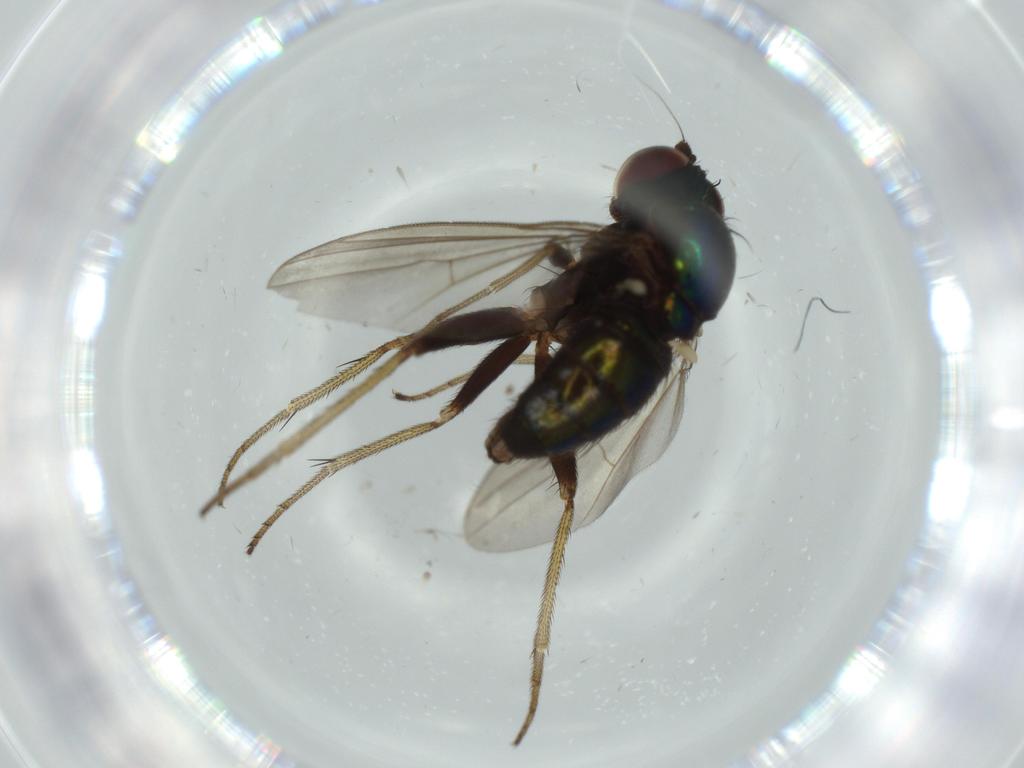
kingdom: Animalia
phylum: Arthropoda
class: Insecta
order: Diptera
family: Dolichopodidae
